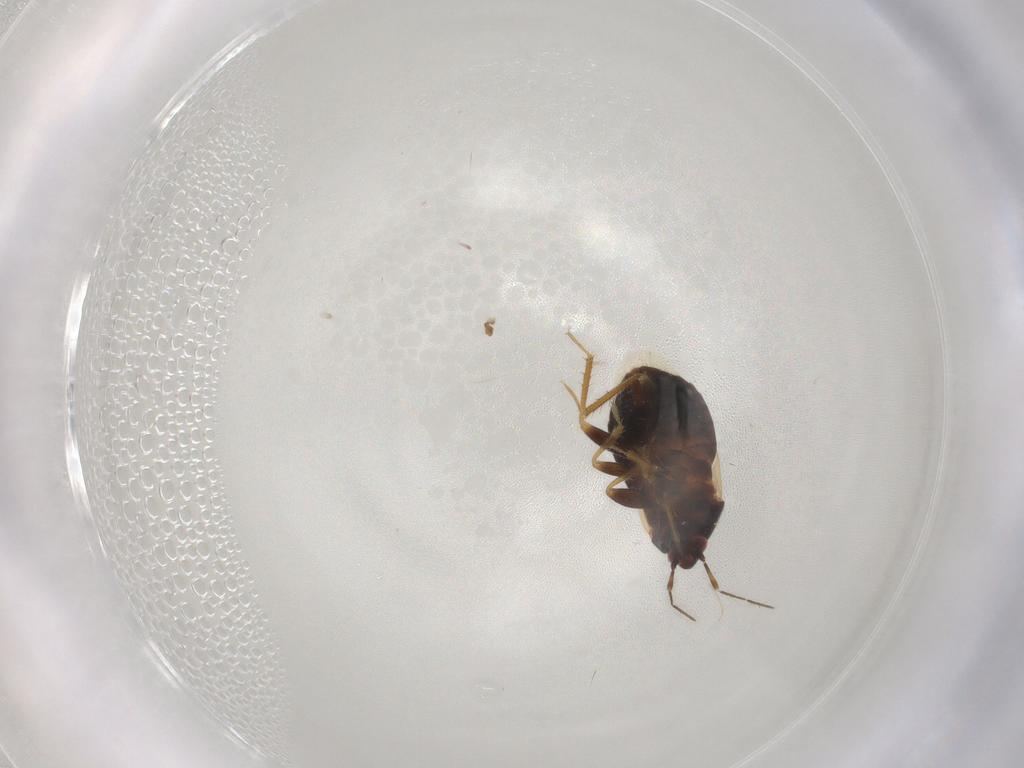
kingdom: Animalia
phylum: Arthropoda
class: Insecta
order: Hemiptera
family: Anthocoridae
